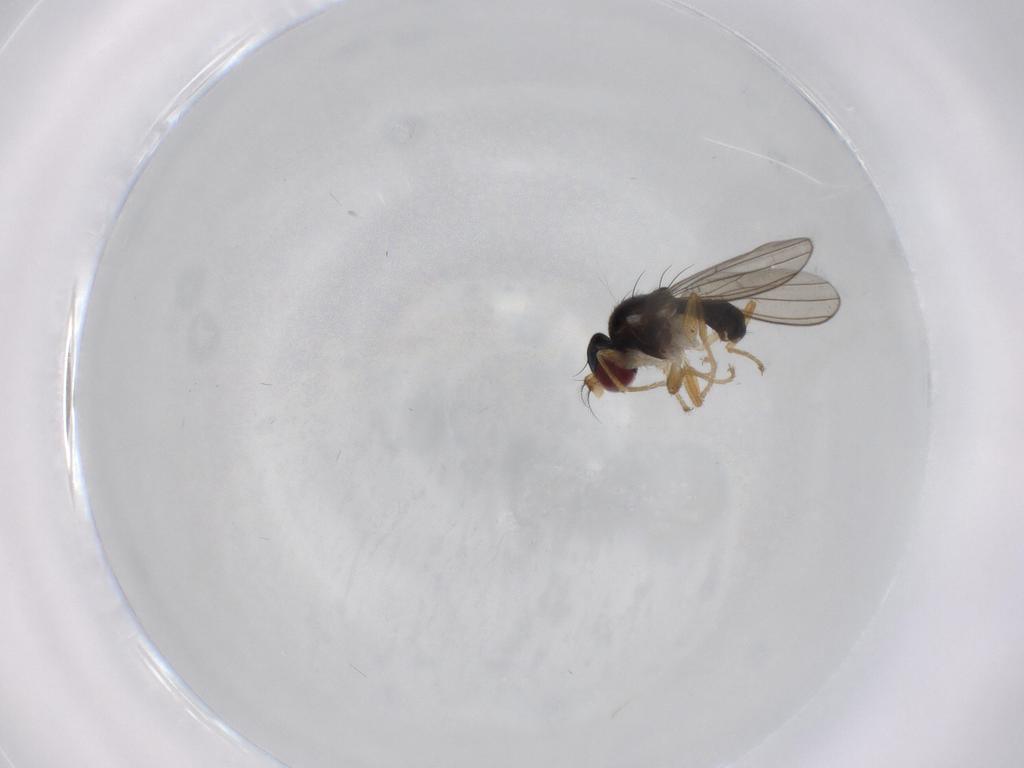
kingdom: Animalia
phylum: Arthropoda
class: Insecta
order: Diptera
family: Anthomyzidae
